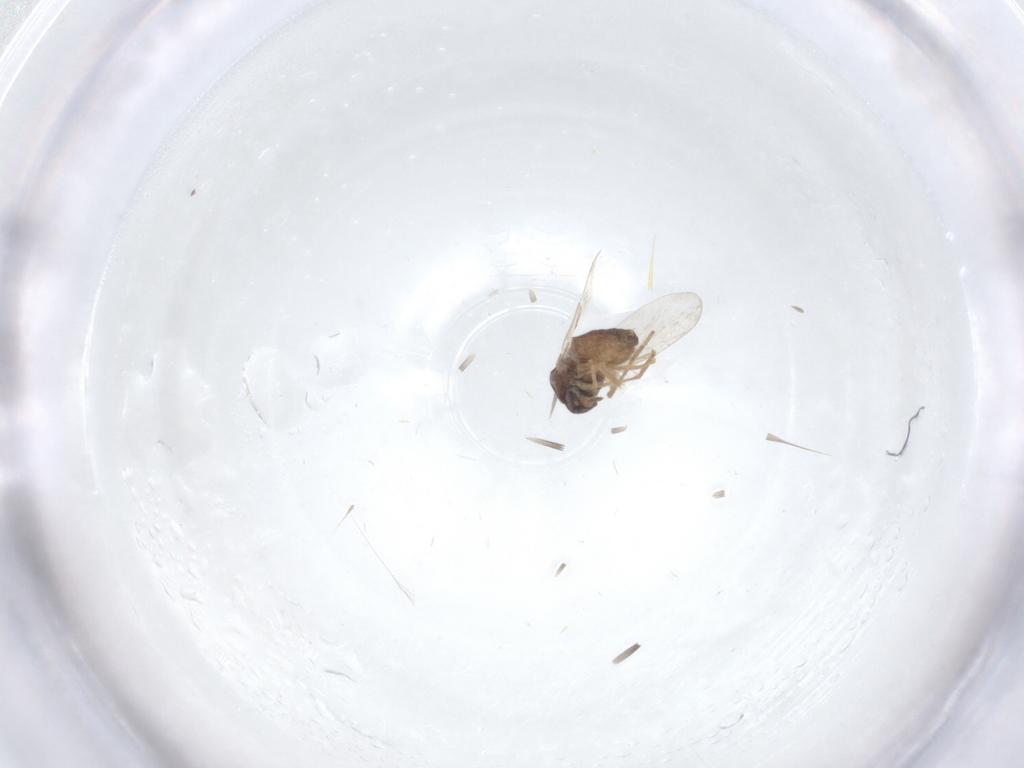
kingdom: Animalia
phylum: Arthropoda
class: Insecta
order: Diptera
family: Ceratopogonidae
